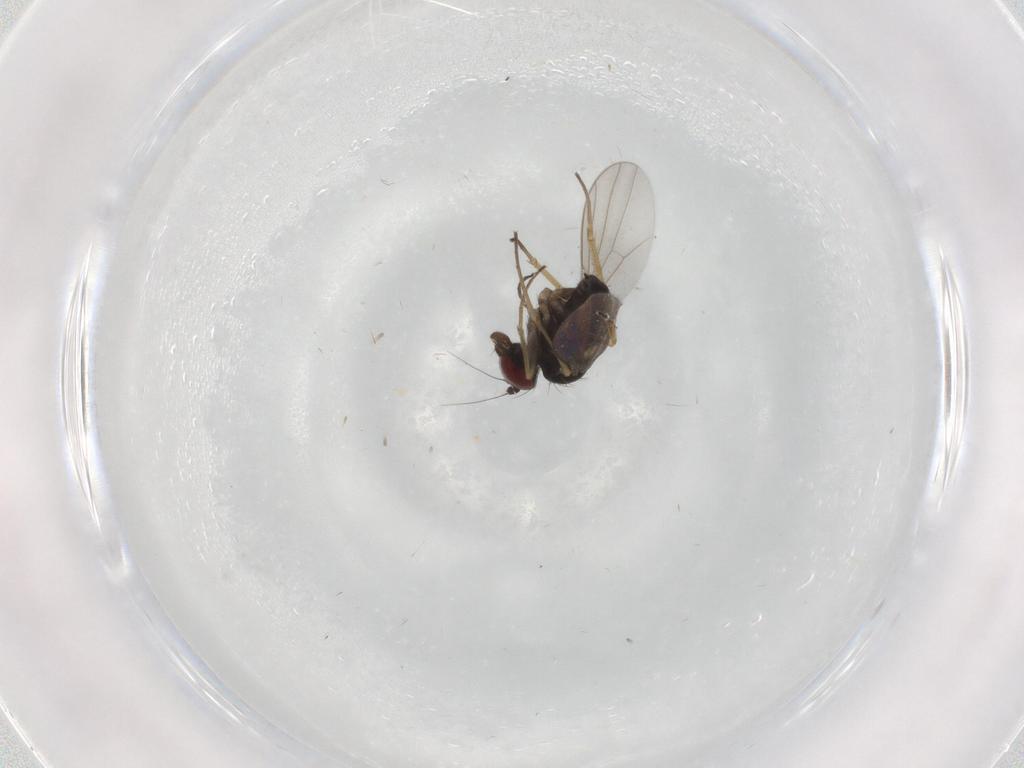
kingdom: Animalia
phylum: Arthropoda
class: Insecta
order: Diptera
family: Dolichopodidae
